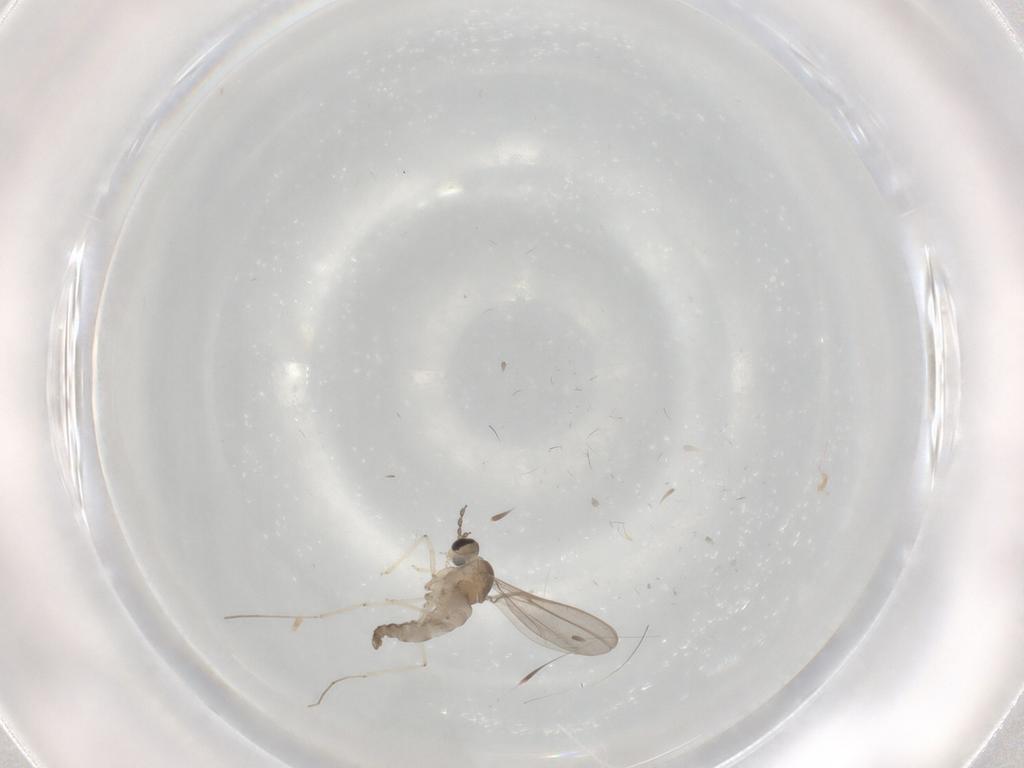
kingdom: Animalia
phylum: Arthropoda
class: Insecta
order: Diptera
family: Cecidomyiidae
